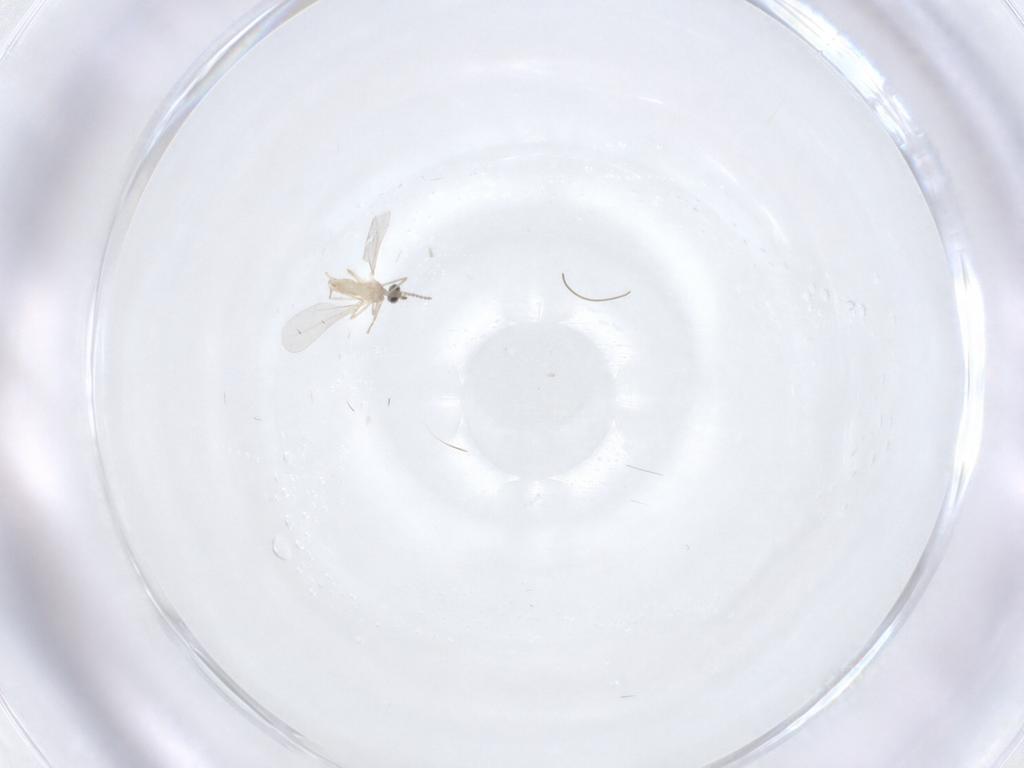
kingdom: Animalia
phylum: Arthropoda
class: Insecta
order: Diptera
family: Cecidomyiidae
